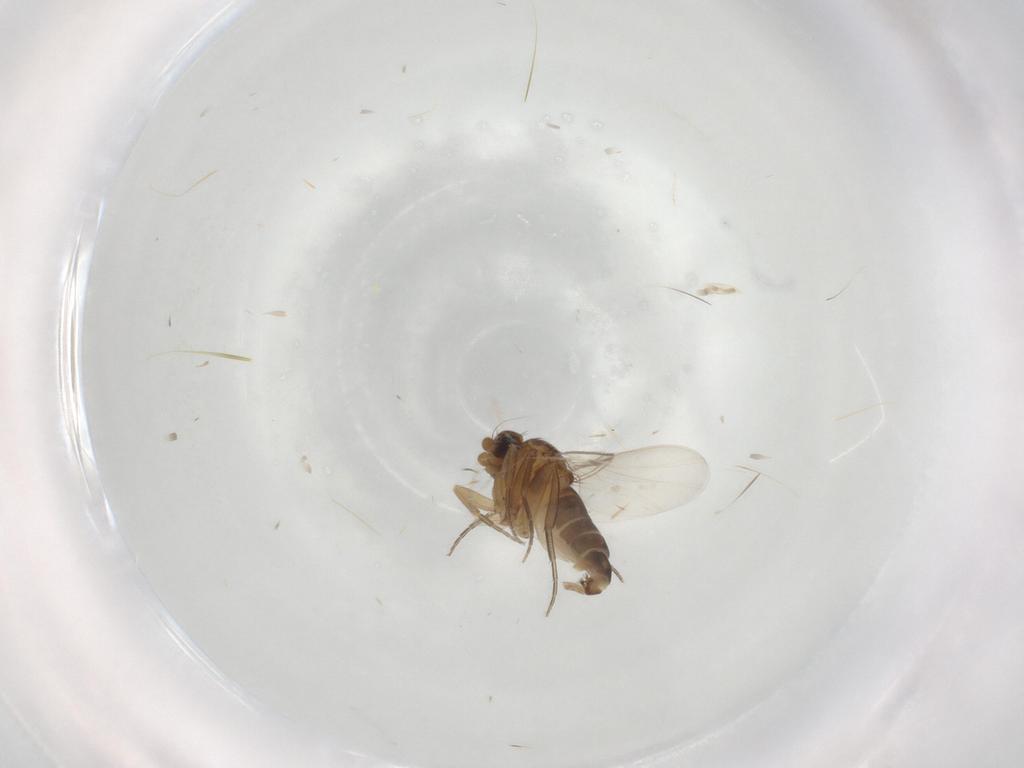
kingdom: Animalia
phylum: Arthropoda
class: Insecta
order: Diptera
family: Phoridae
